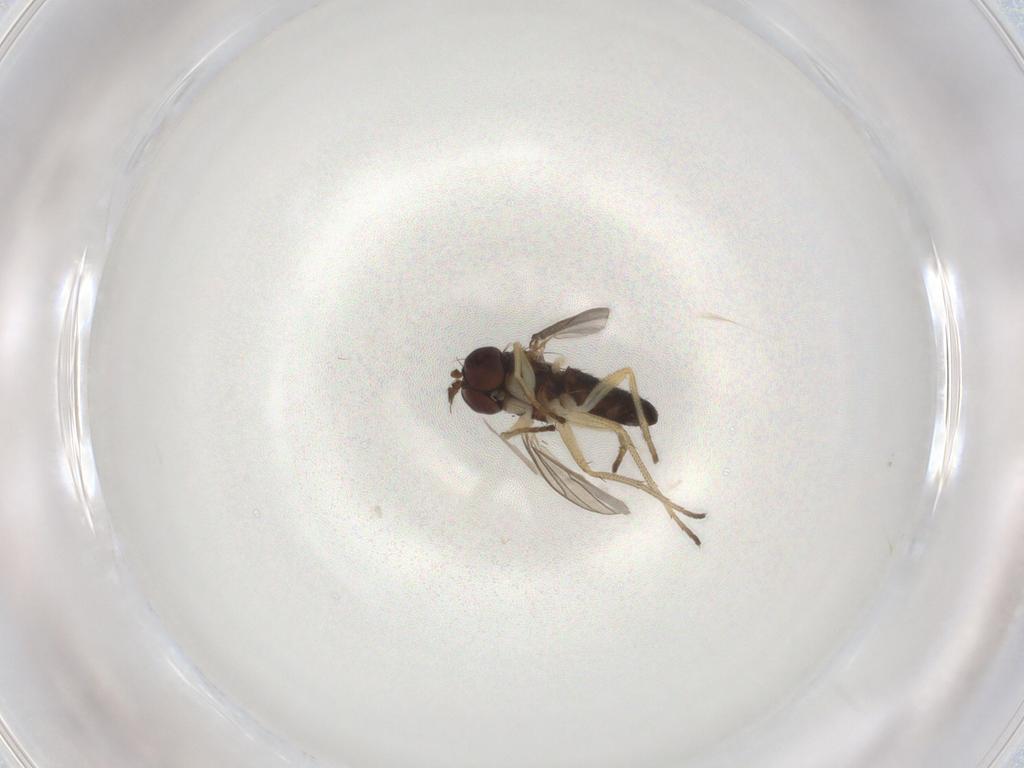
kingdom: Animalia
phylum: Arthropoda
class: Insecta
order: Diptera
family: Dolichopodidae
